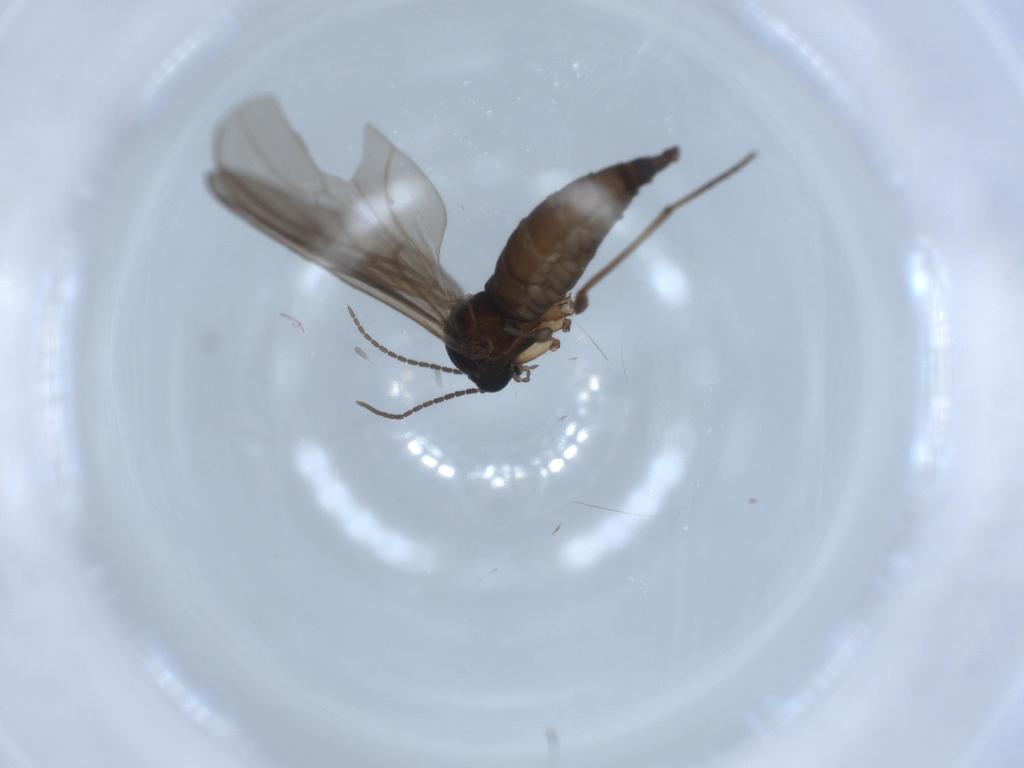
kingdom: Animalia
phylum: Arthropoda
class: Insecta
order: Diptera
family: Sciaridae
